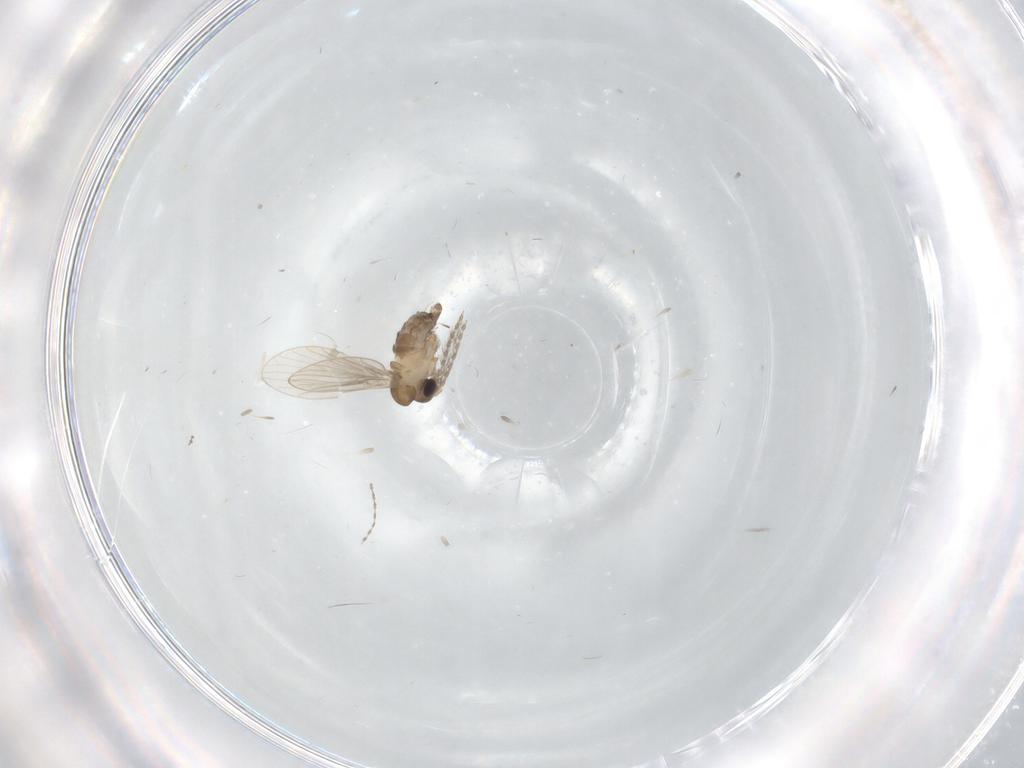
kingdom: Animalia
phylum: Arthropoda
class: Insecta
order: Diptera
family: Cecidomyiidae
